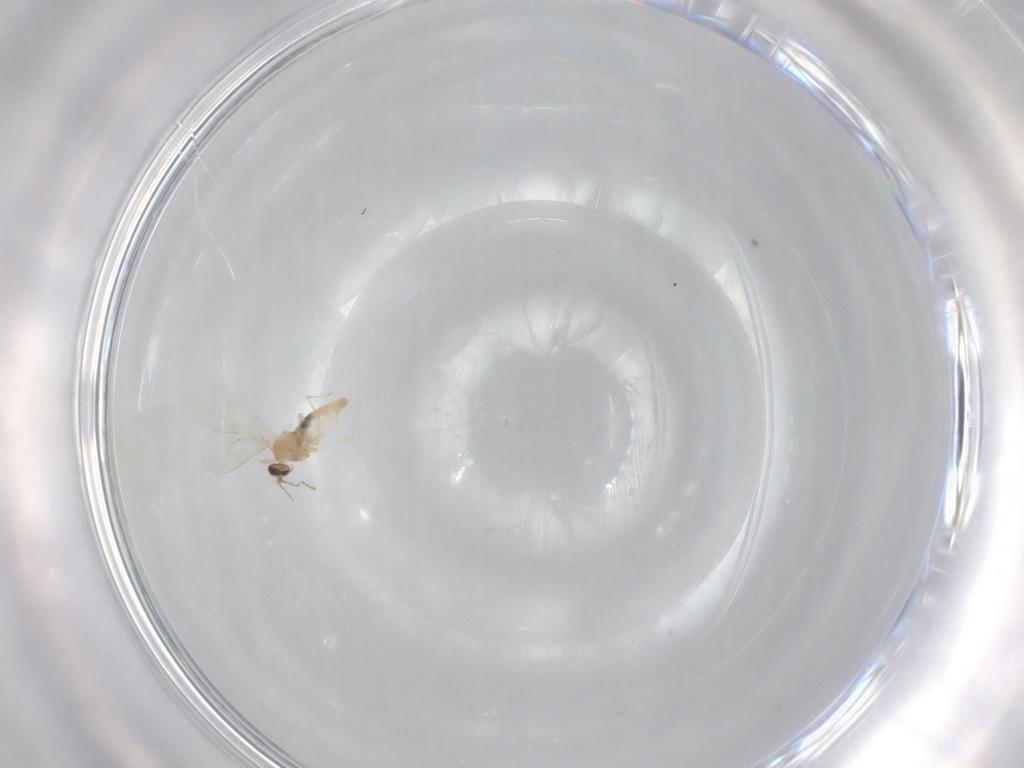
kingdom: Animalia
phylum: Arthropoda
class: Insecta
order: Diptera
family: Cecidomyiidae
